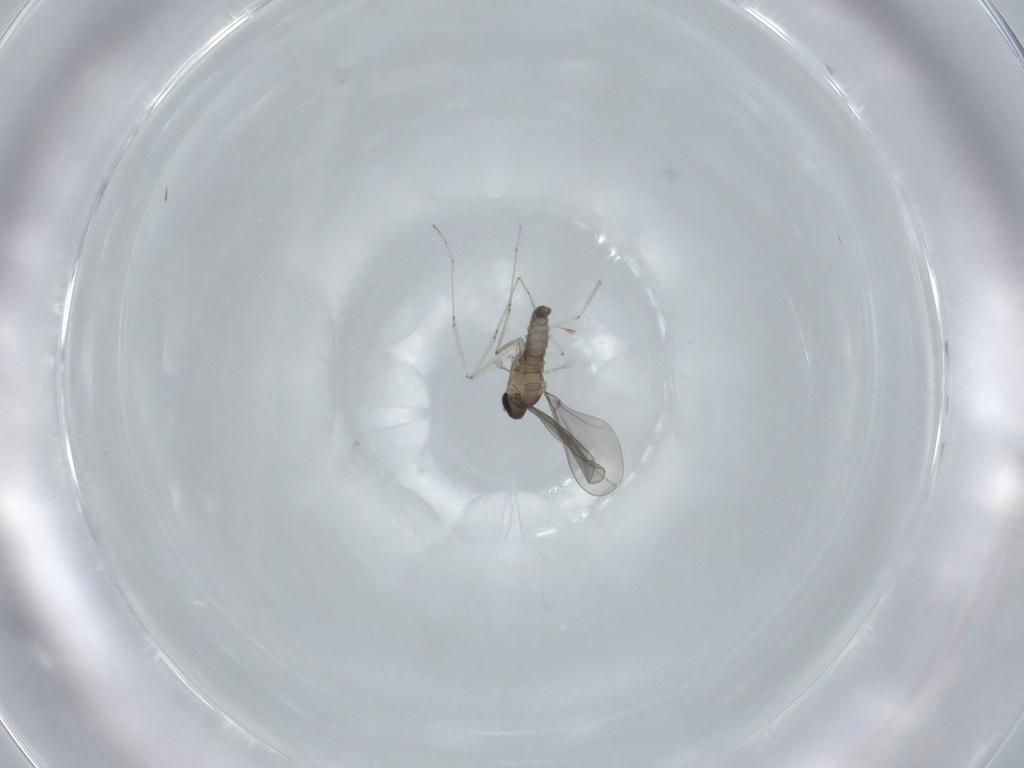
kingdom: Animalia
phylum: Arthropoda
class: Insecta
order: Diptera
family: Cecidomyiidae
